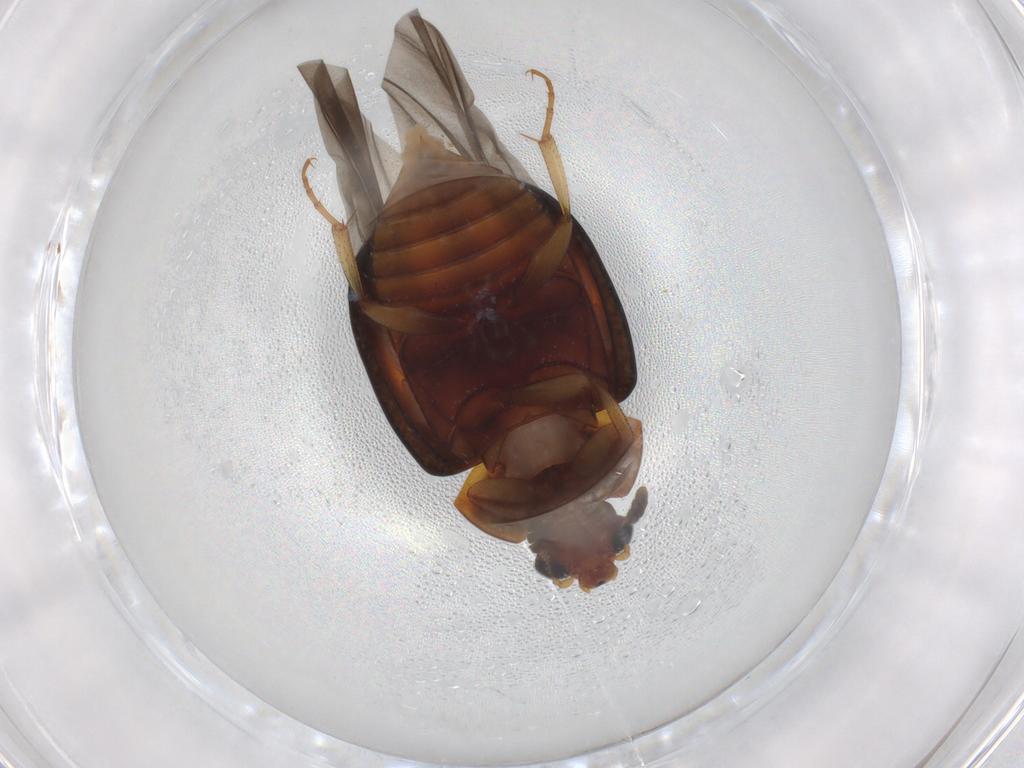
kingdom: Animalia
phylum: Arthropoda
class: Insecta
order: Coleoptera
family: Nitidulidae
